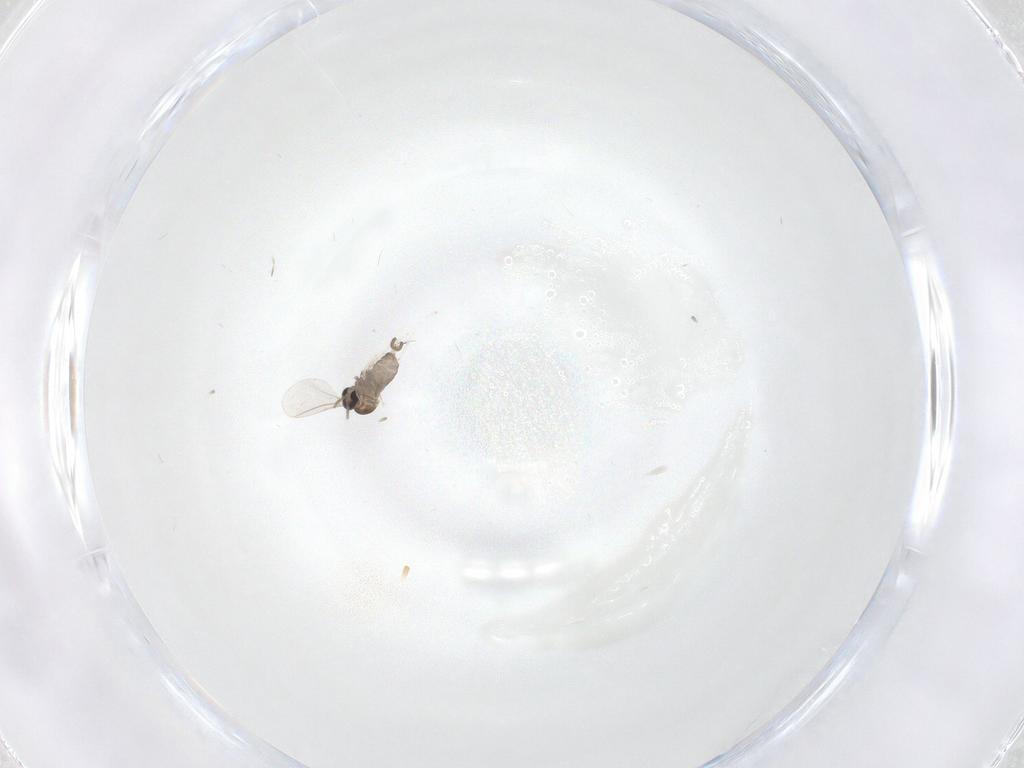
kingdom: Animalia
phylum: Arthropoda
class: Insecta
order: Diptera
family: Cecidomyiidae
